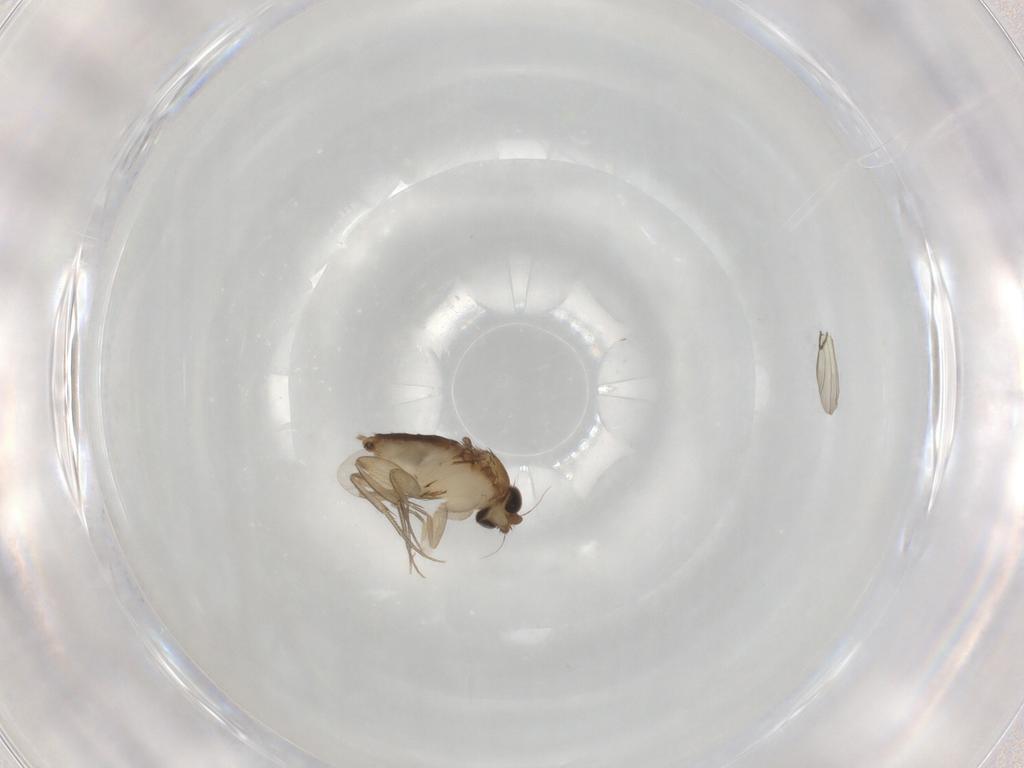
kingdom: Animalia
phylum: Arthropoda
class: Insecta
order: Diptera
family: Phoridae
